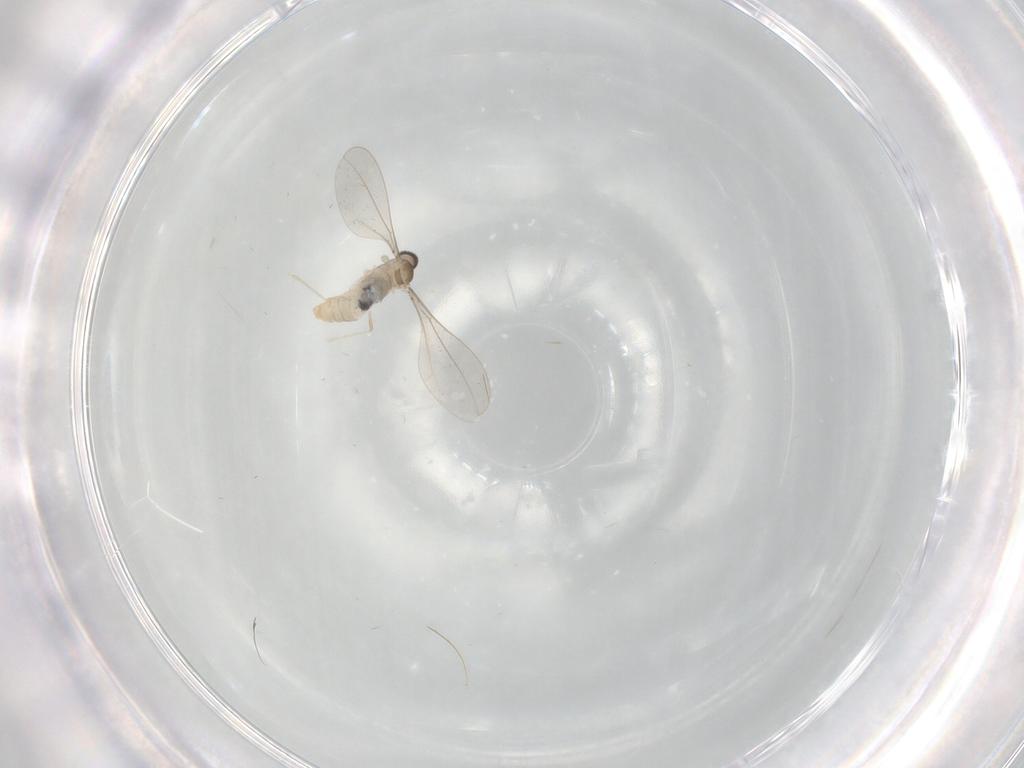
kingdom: Animalia
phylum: Arthropoda
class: Insecta
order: Diptera
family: Cecidomyiidae
